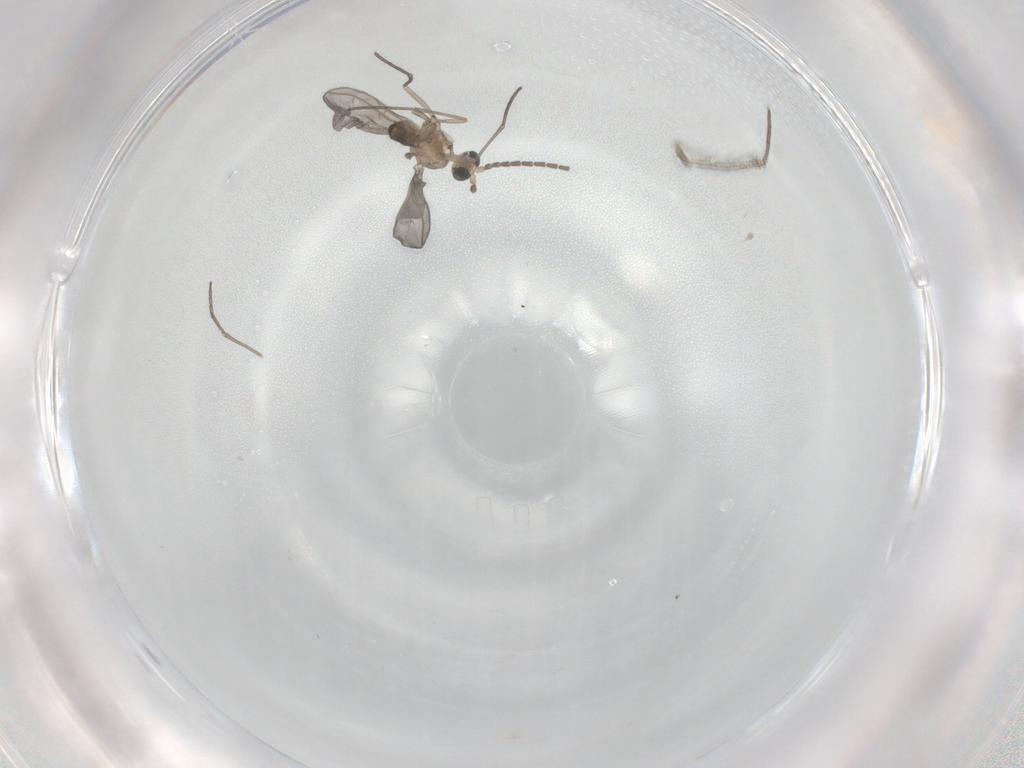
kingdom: Animalia
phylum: Arthropoda
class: Insecta
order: Diptera
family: Sciaridae
